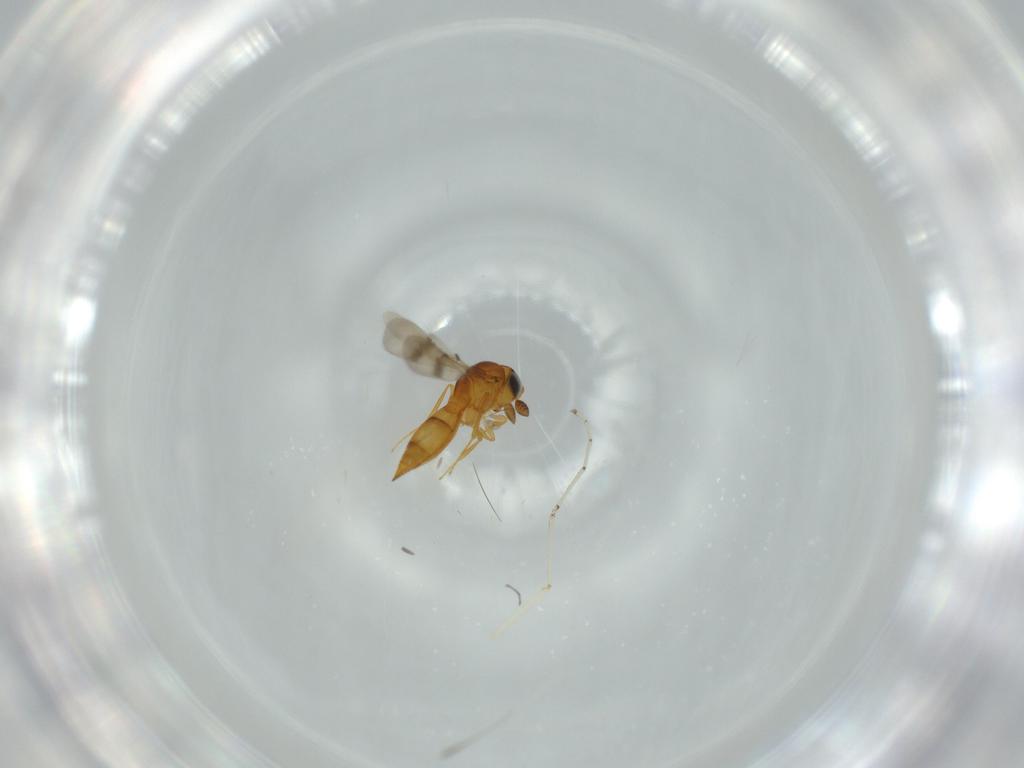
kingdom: Animalia
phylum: Arthropoda
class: Insecta
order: Hymenoptera
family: Scelionidae
